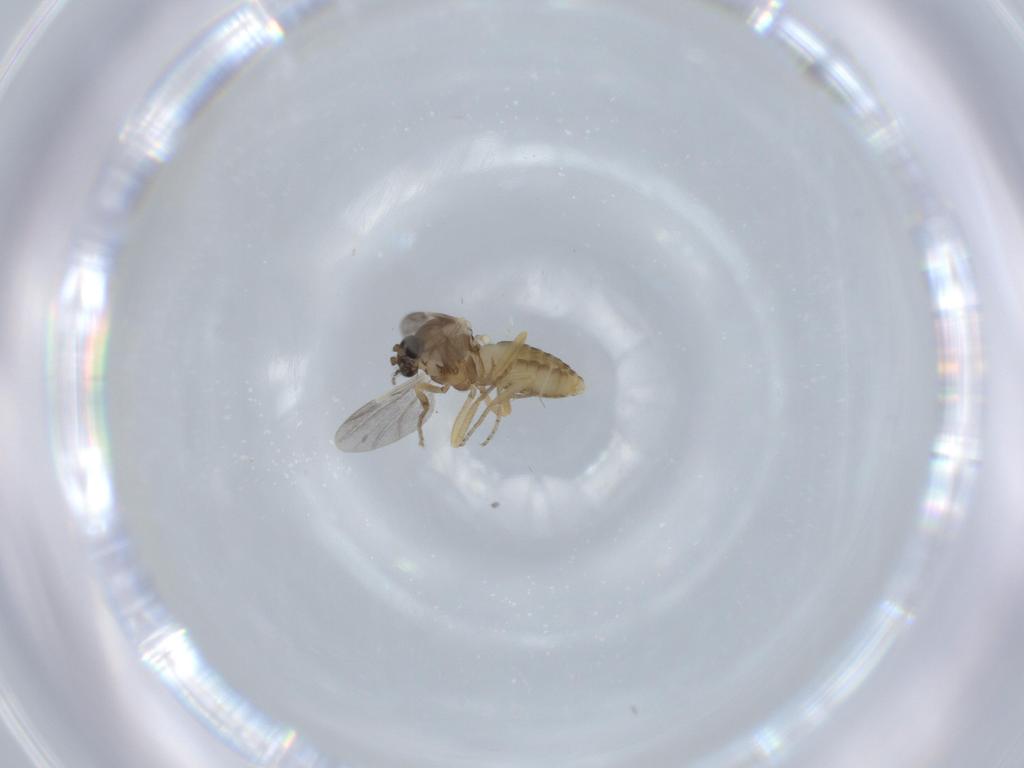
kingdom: Animalia
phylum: Arthropoda
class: Insecta
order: Diptera
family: Ceratopogonidae
